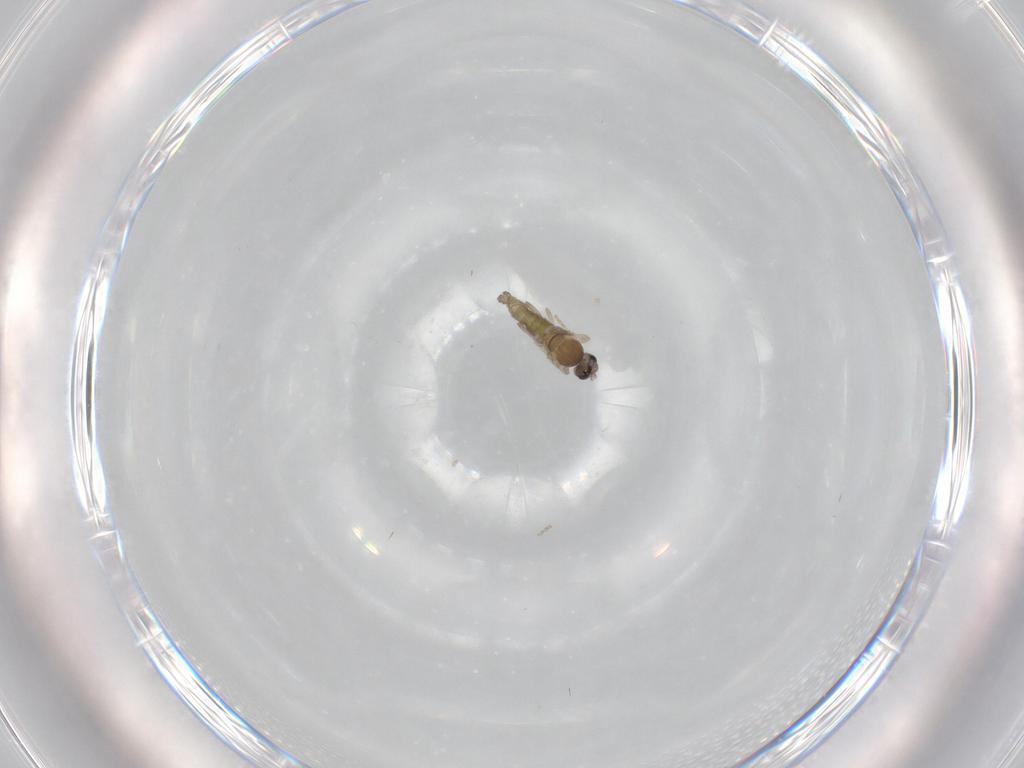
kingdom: Animalia
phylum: Arthropoda
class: Insecta
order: Diptera
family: Cecidomyiidae
